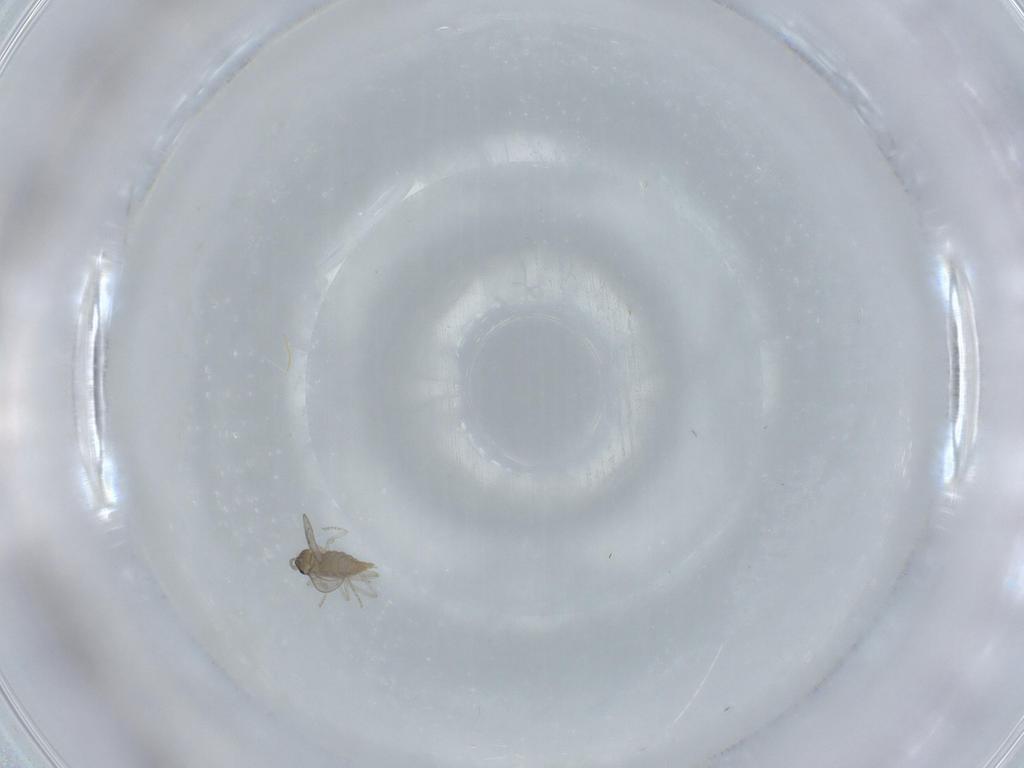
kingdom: Animalia
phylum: Arthropoda
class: Insecta
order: Diptera
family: Cecidomyiidae
